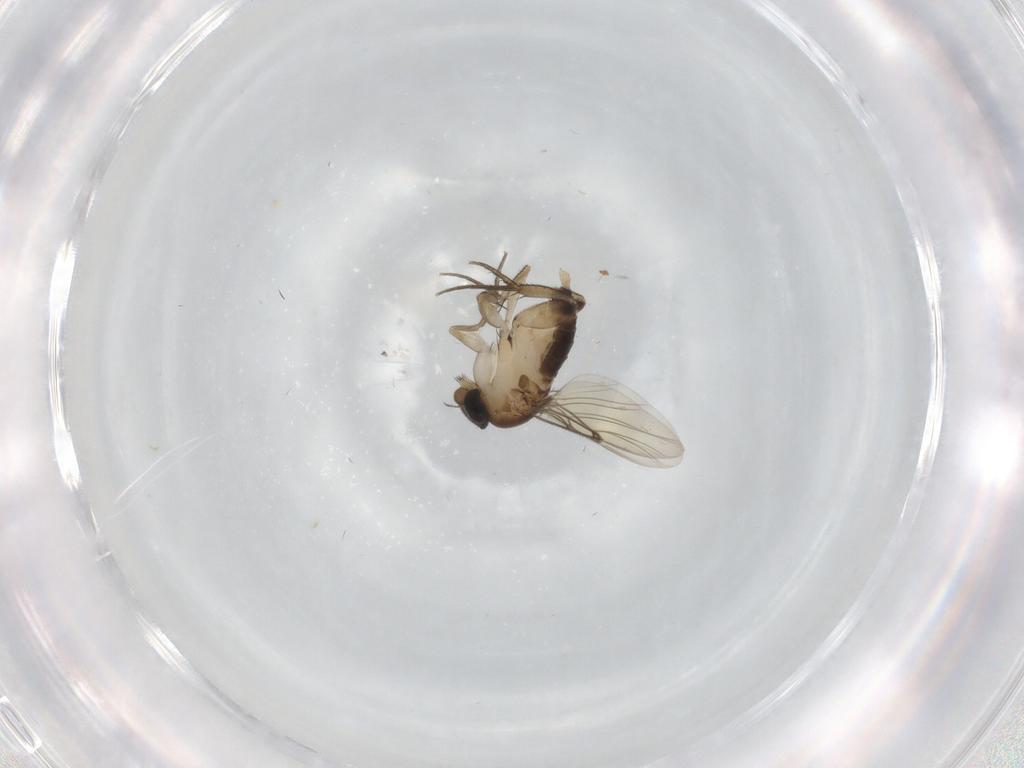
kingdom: Animalia
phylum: Arthropoda
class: Insecta
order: Diptera
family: Phoridae
